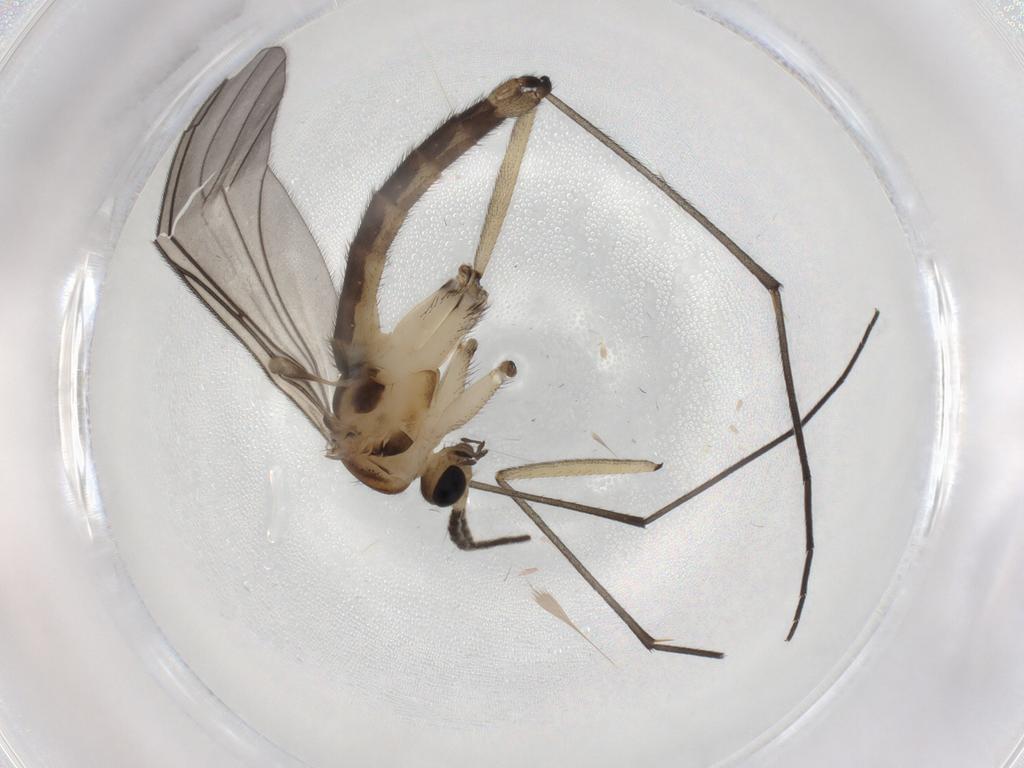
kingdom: Animalia
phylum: Arthropoda
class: Insecta
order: Diptera
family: Sciaridae
